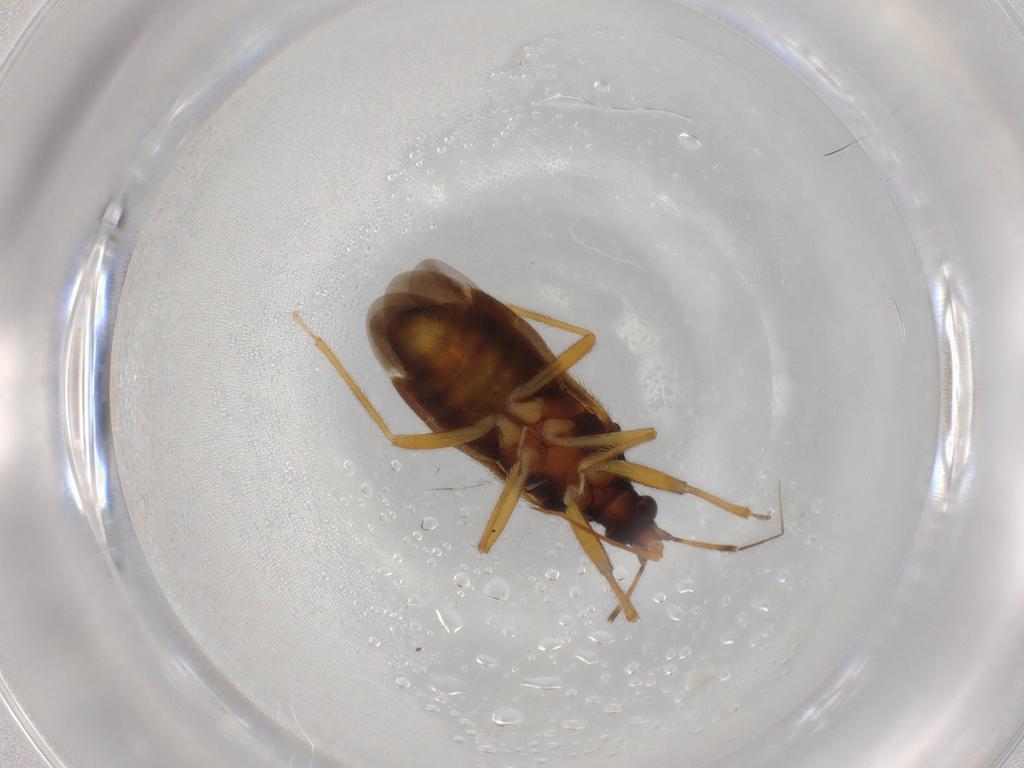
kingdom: Animalia
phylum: Arthropoda
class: Insecta
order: Hemiptera
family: Anthocoridae
